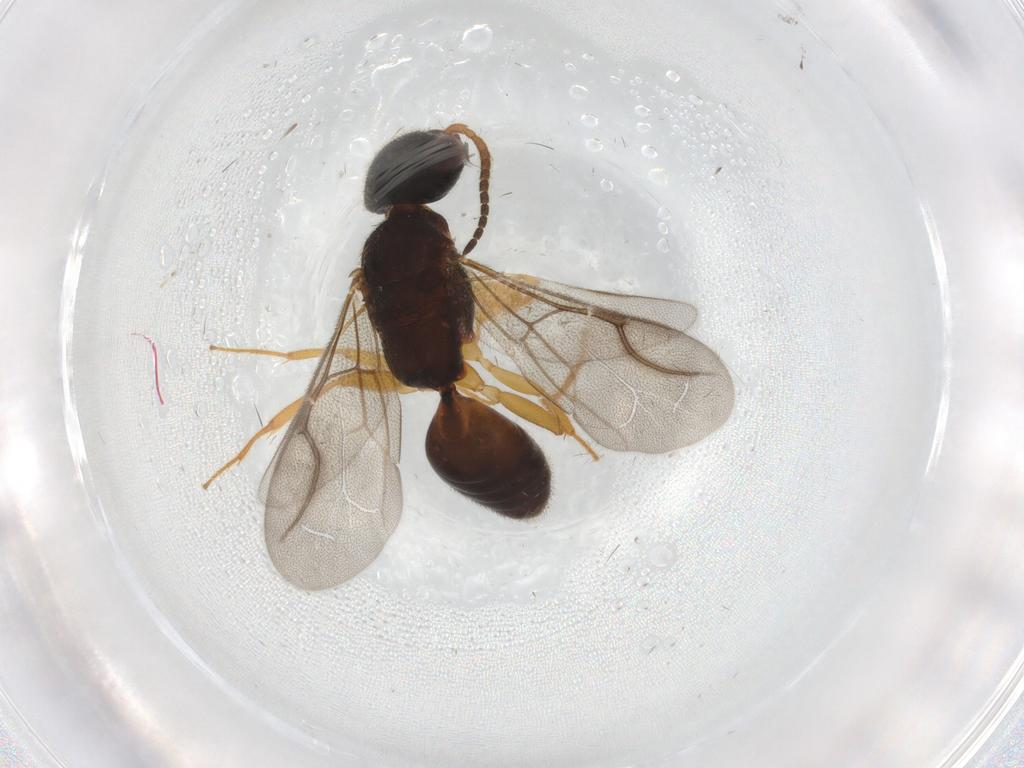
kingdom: Animalia
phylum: Arthropoda
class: Insecta
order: Hymenoptera
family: Bethylidae
